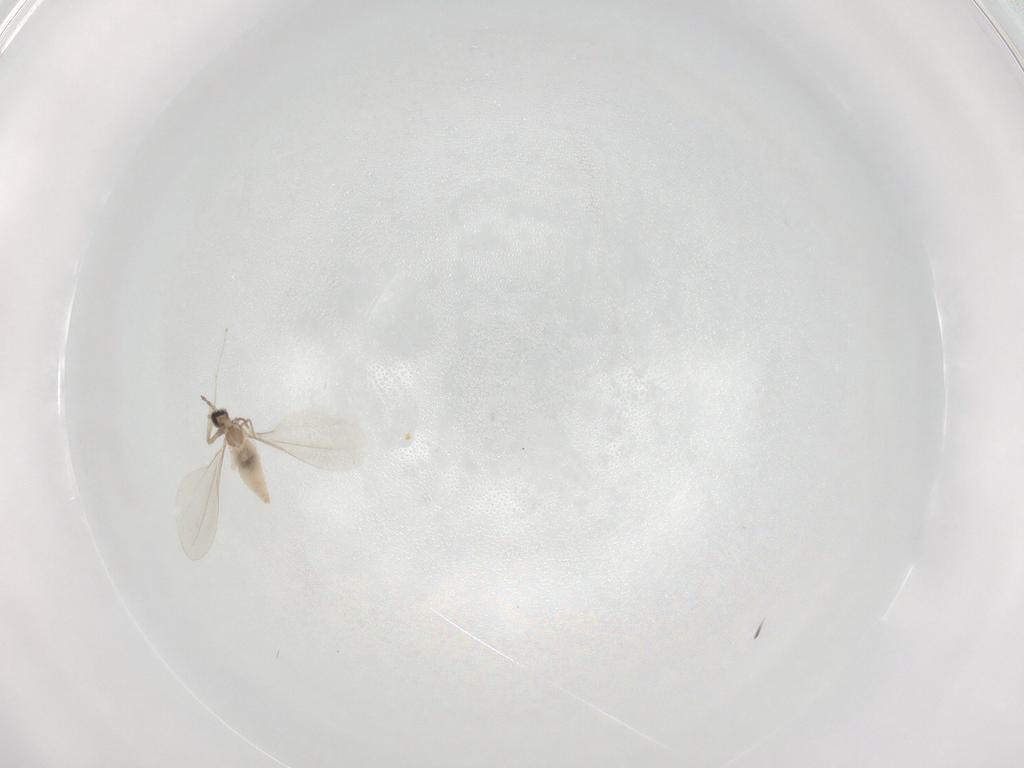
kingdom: Animalia
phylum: Arthropoda
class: Insecta
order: Diptera
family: Cecidomyiidae
